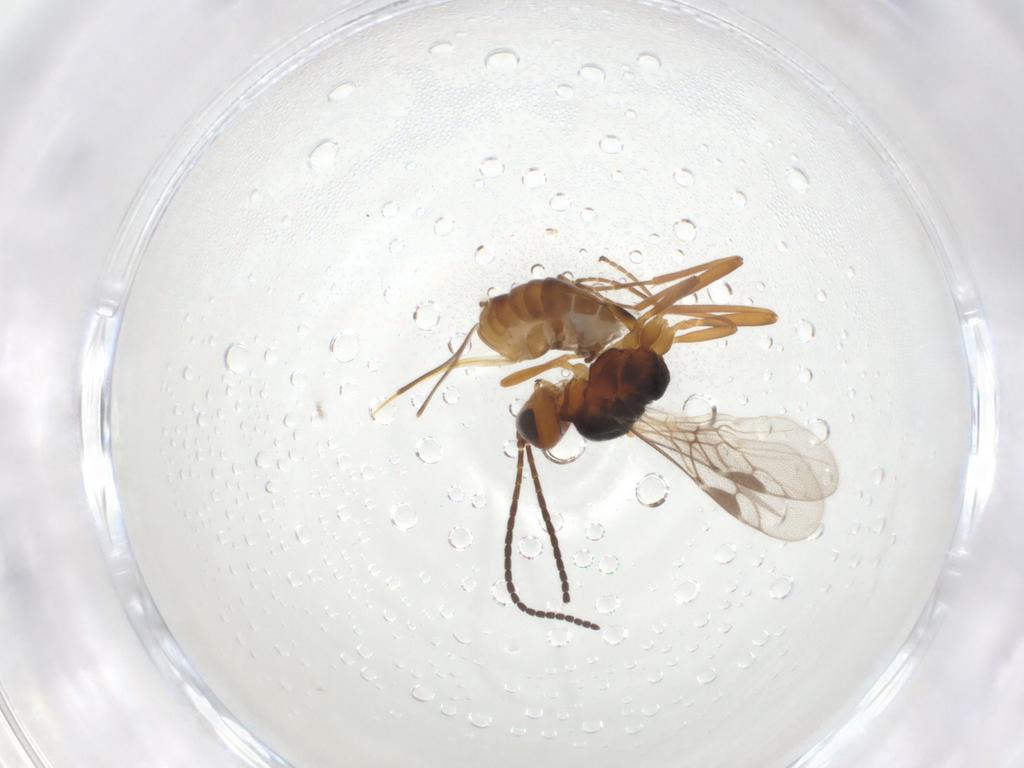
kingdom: Animalia
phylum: Arthropoda
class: Insecta
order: Hymenoptera
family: Braconidae
